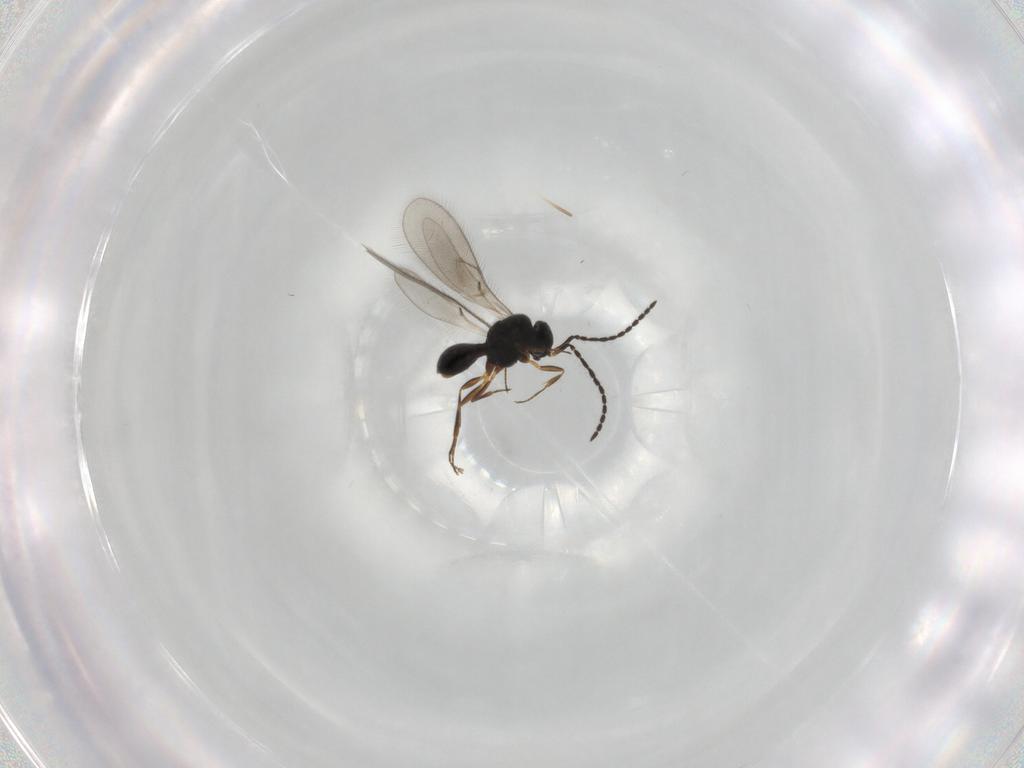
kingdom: Animalia
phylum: Arthropoda
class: Insecta
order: Hymenoptera
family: Scelionidae
